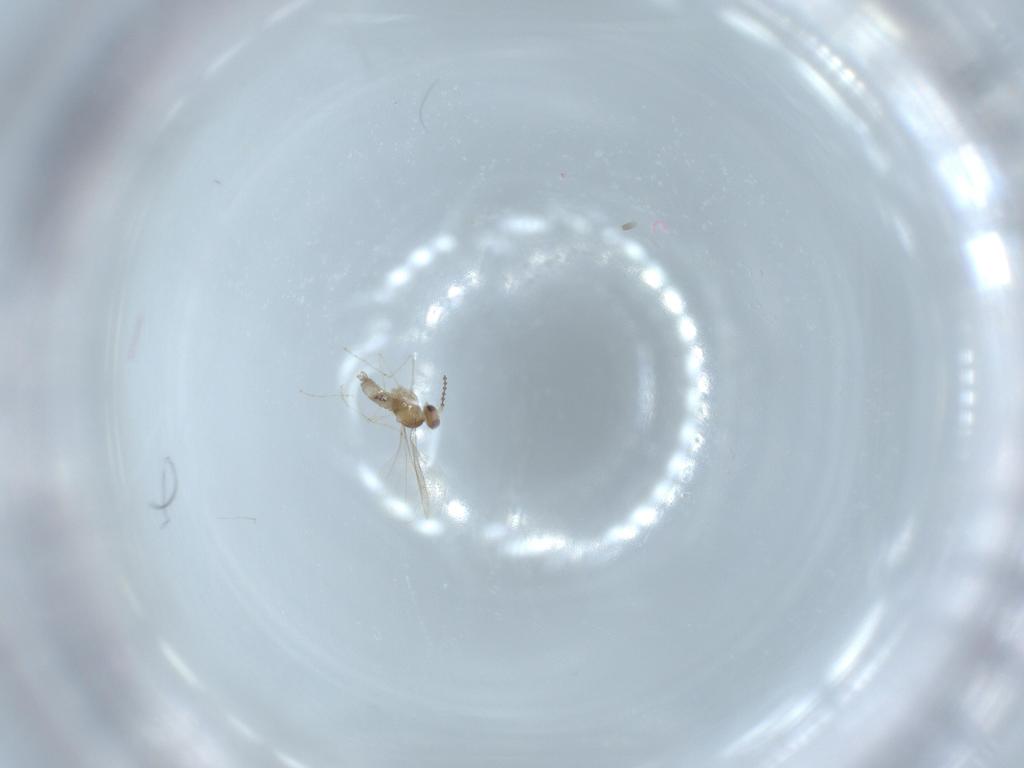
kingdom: Animalia
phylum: Arthropoda
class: Insecta
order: Diptera
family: Cecidomyiidae
